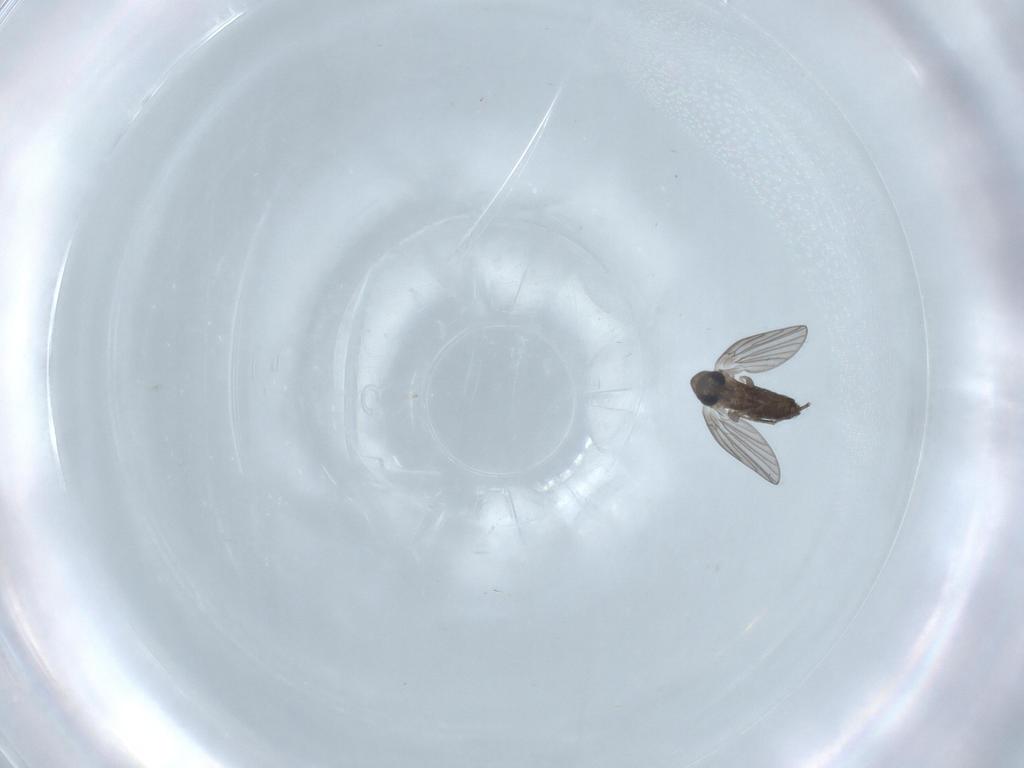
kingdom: Animalia
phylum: Arthropoda
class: Insecta
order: Diptera
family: Psychodidae
